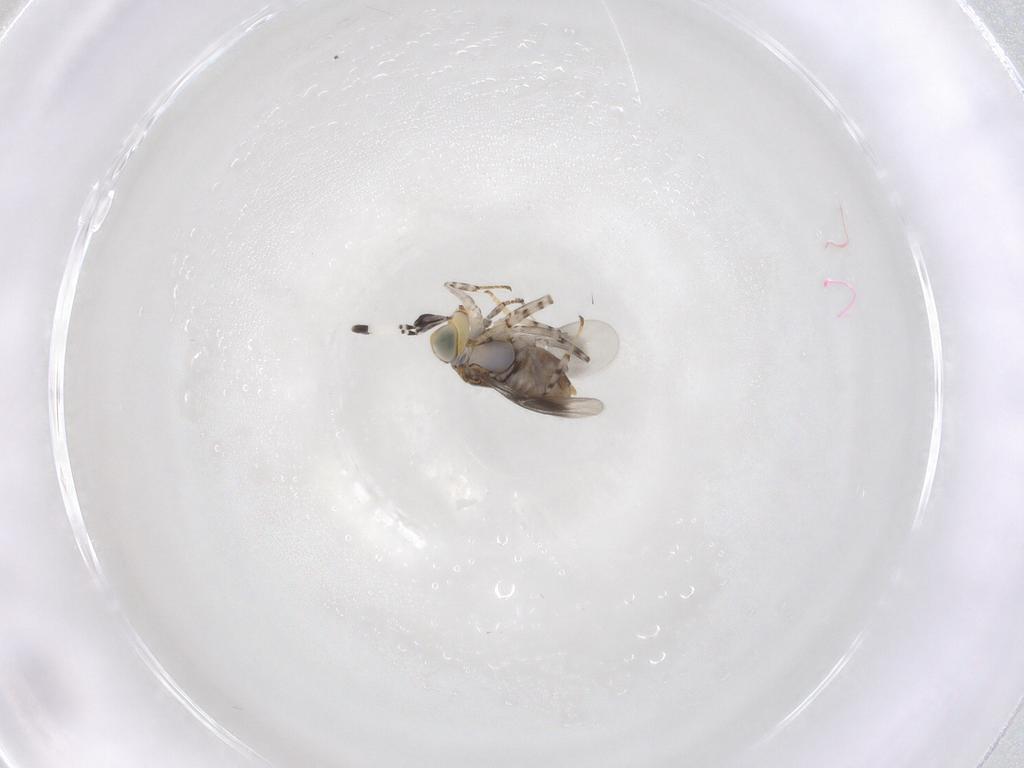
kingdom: Animalia
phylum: Arthropoda
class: Insecta
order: Hymenoptera
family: Encyrtidae
